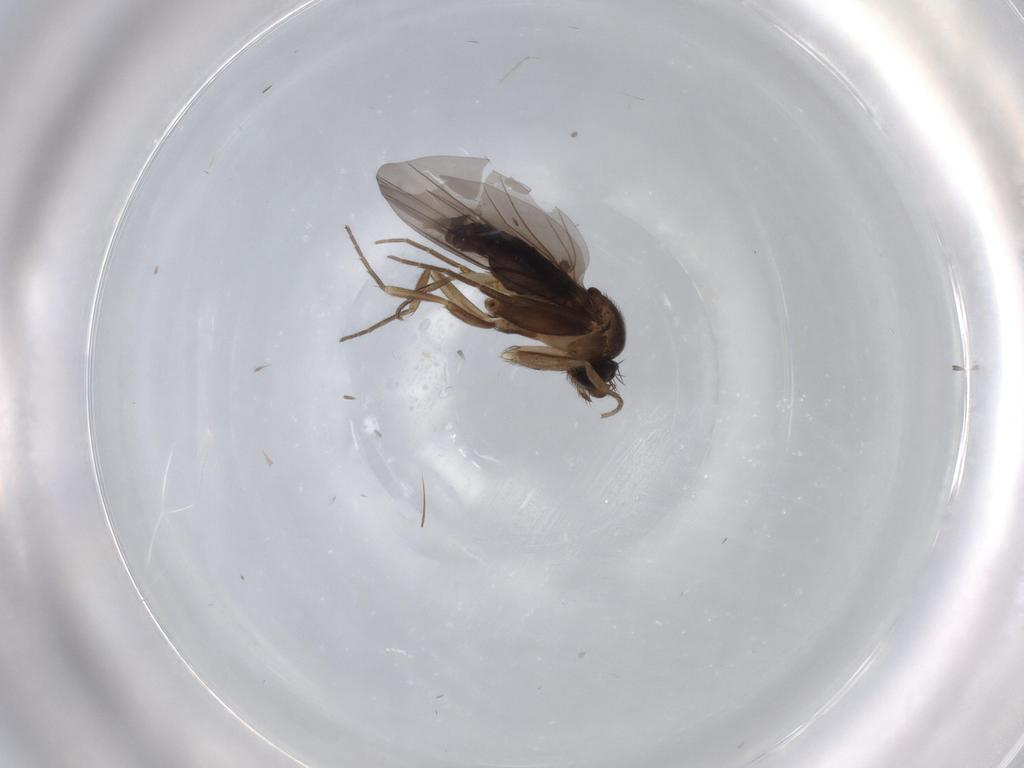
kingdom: Animalia
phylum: Arthropoda
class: Insecta
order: Diptera
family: Ceratopogonidae
